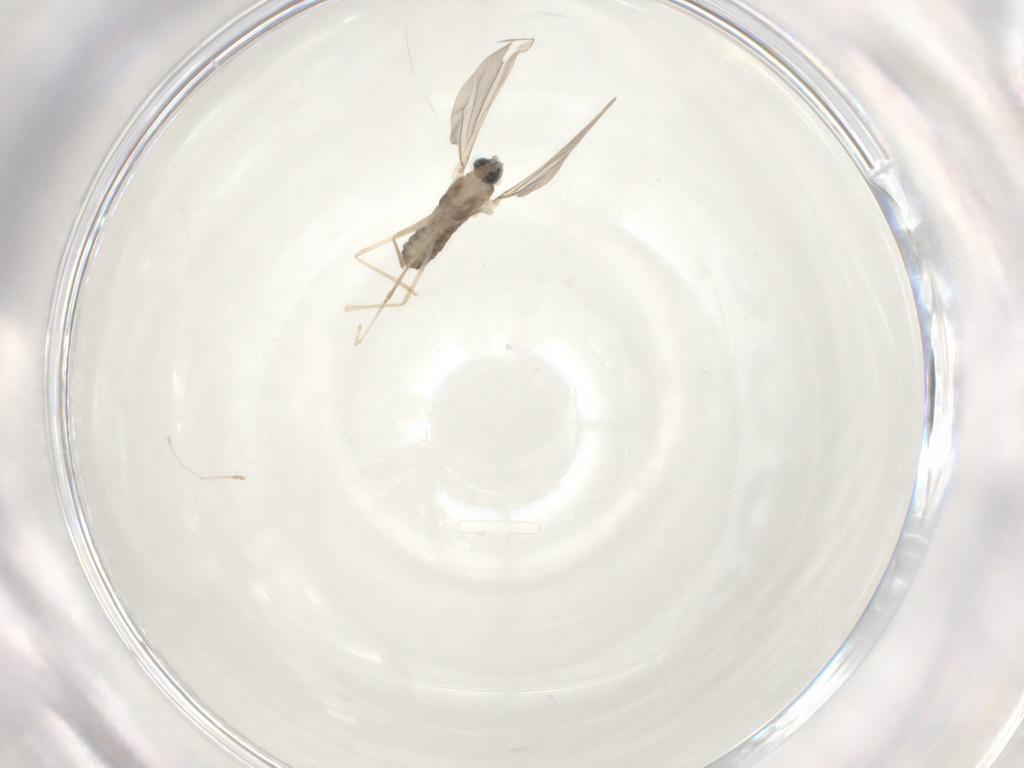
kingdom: Animalia
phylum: Arthropoda
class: Insecta
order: Diptera
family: Cecidomyiidae
